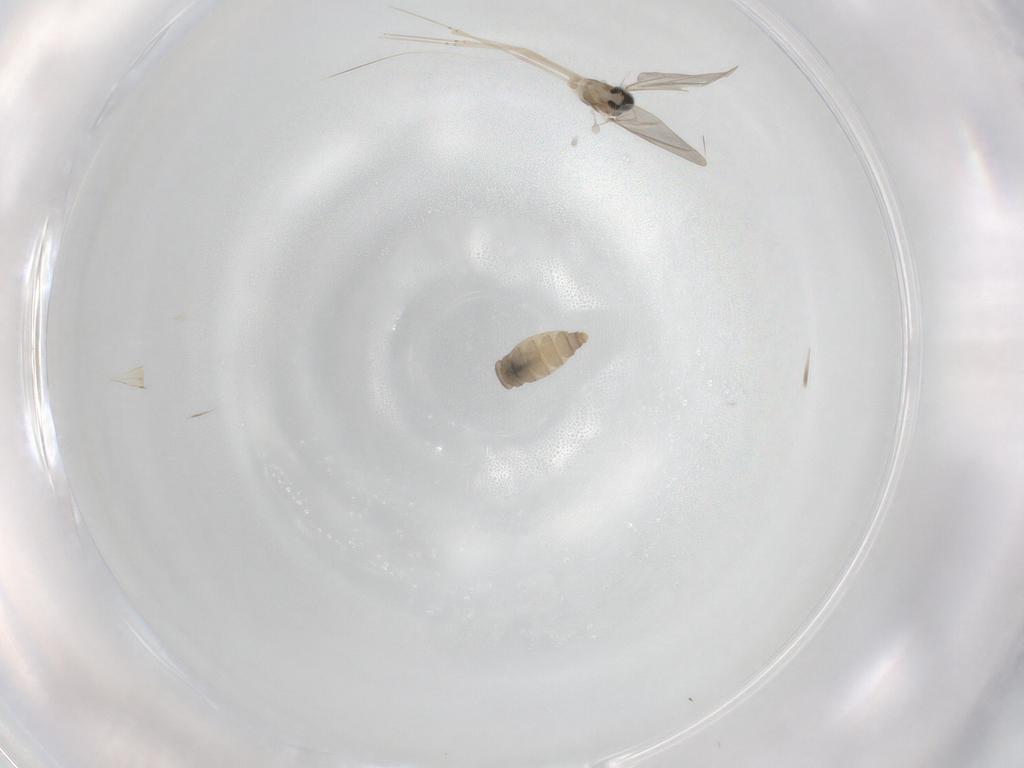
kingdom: Animalia
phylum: Arthropoda
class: Insecta
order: Diptera
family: Cecidomyiidae
